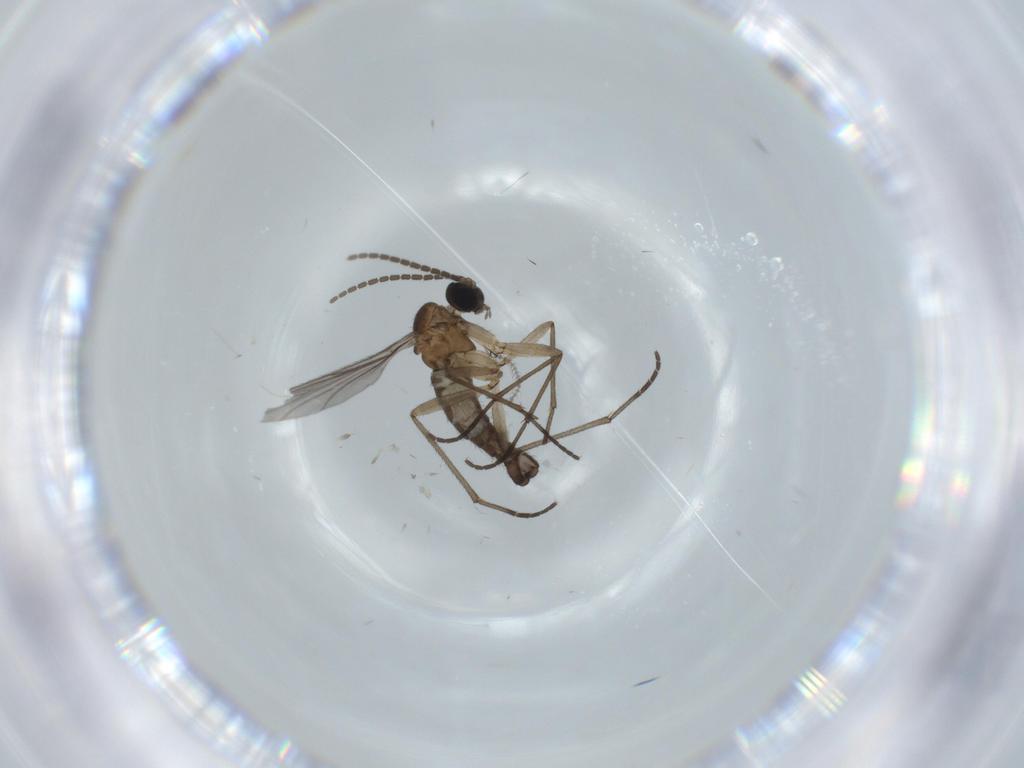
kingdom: Animalia
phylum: Arthropoda
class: Insecta
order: Diptera
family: Sciaridae
